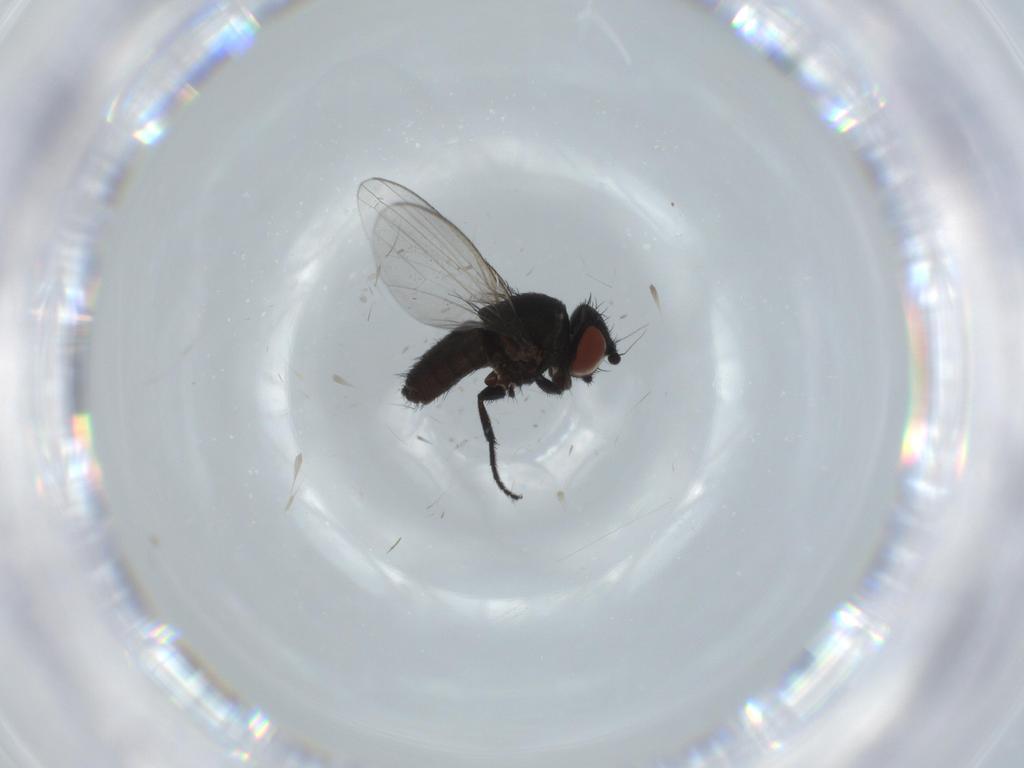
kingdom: Animalia
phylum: Arthropoda
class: Insecta
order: Diptera
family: Milichiidae
